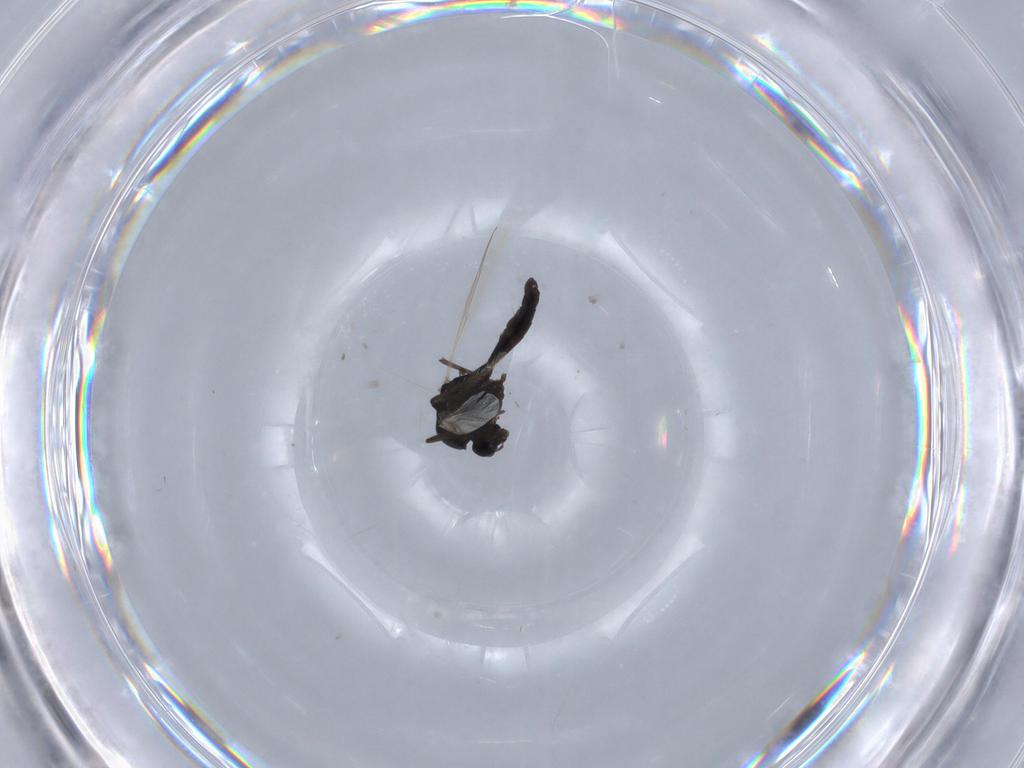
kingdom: Animalia
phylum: Arthropoda
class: Insecta
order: Diptera
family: Chironomidae
